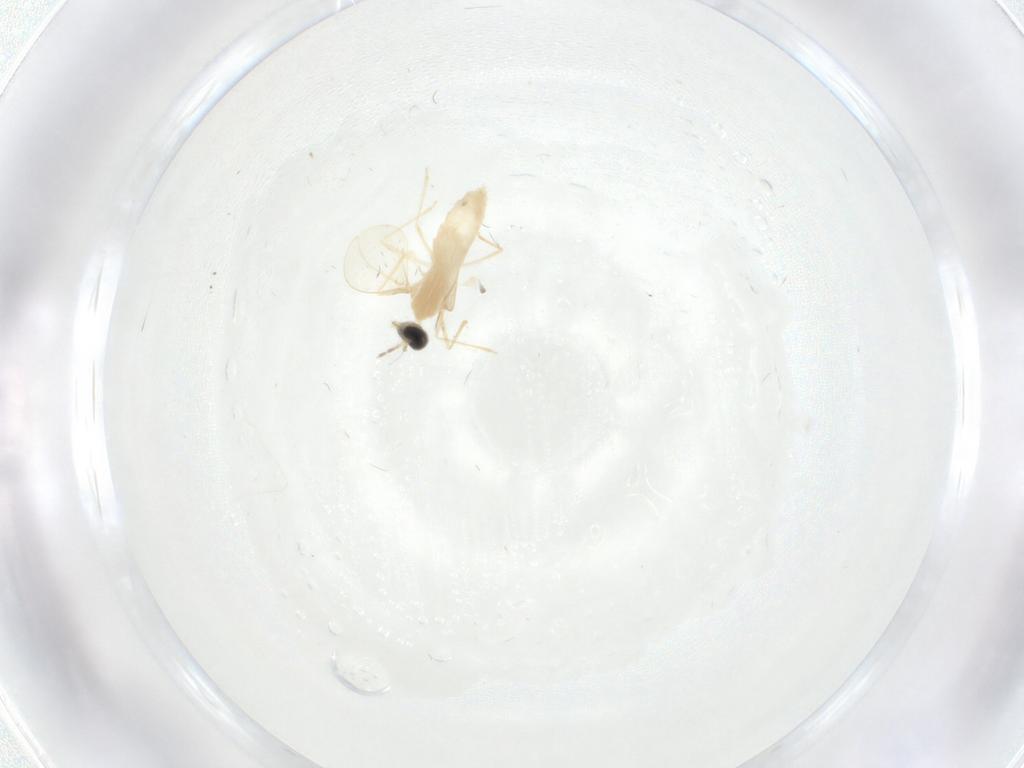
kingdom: Animalia
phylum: Arthropoda
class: Insecta
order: Diptera
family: Cecidomyiidae
